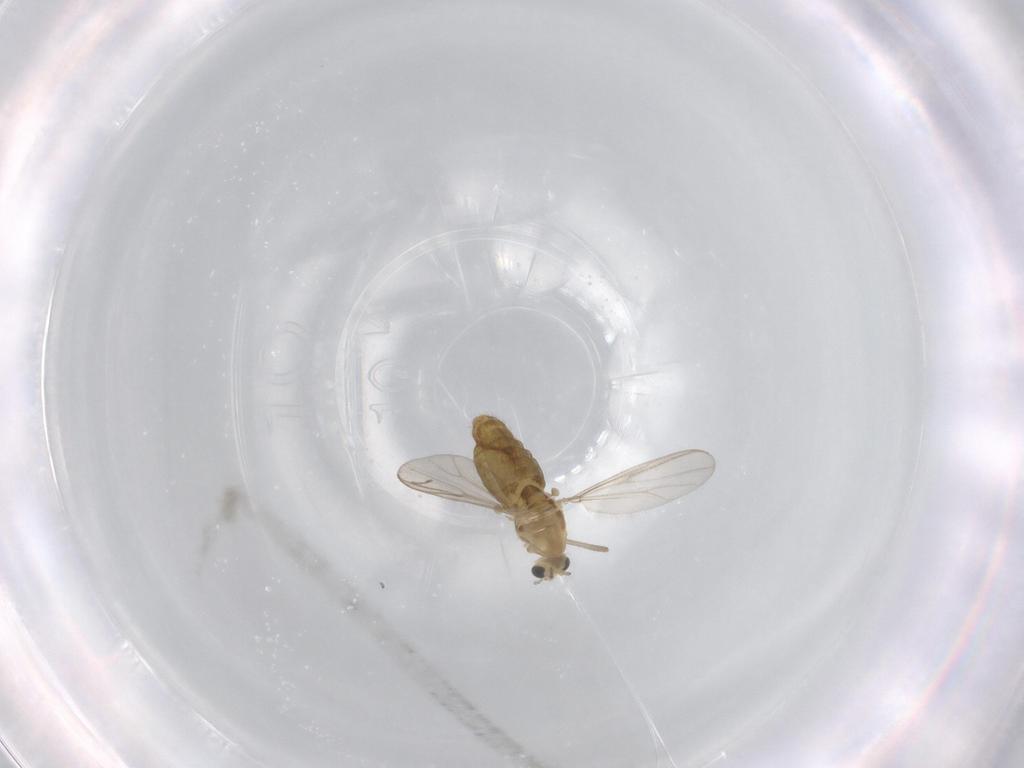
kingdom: Animalia
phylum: Arthropoda
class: Insecta
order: Diptera
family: Chironomidae
